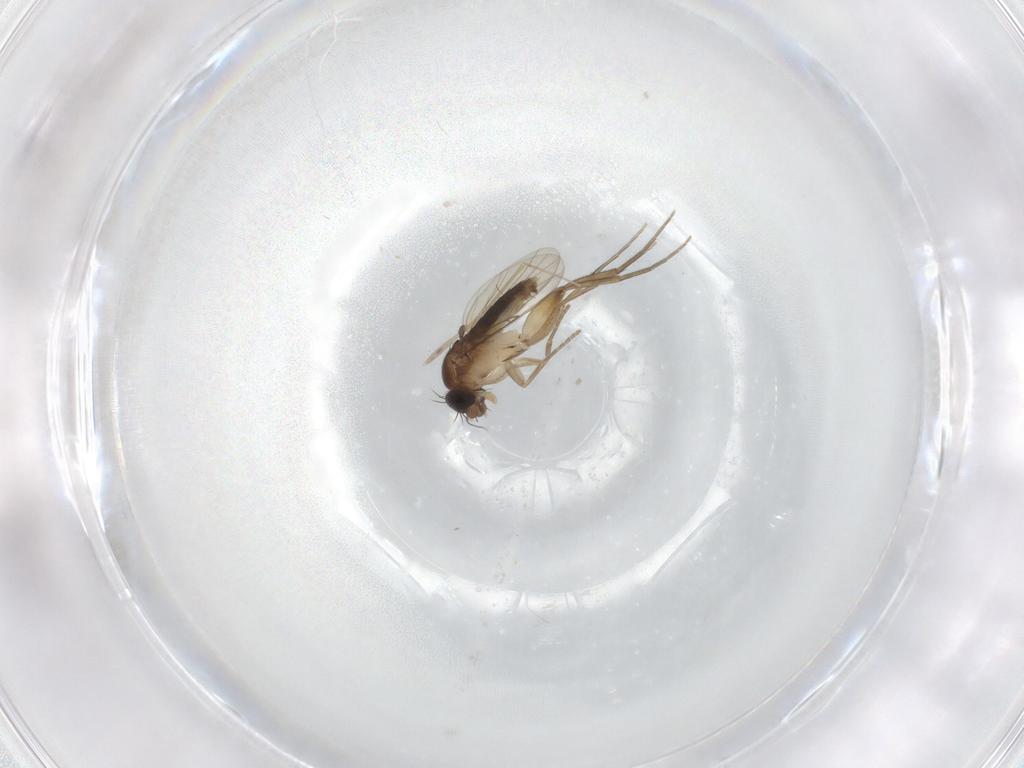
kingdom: Animalia
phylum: Arthropoda
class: Insecta
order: Diptera
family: Phoridae
